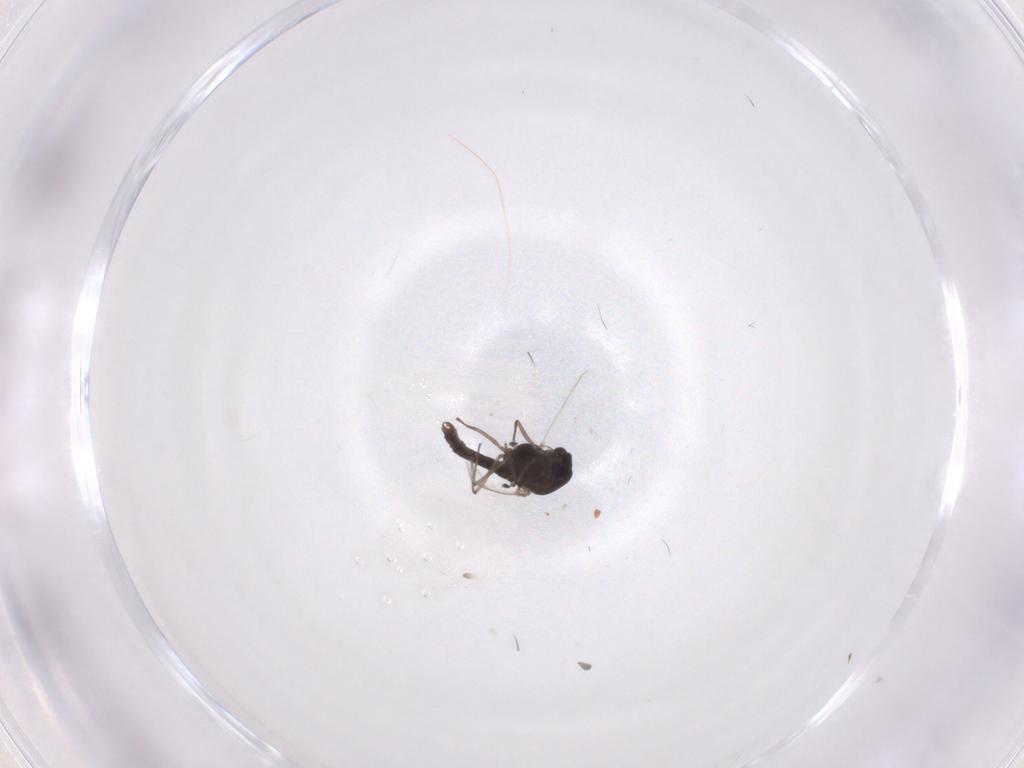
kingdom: Animalia
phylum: Arthropoda
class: Insecta
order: Diptera
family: Chironomidae
